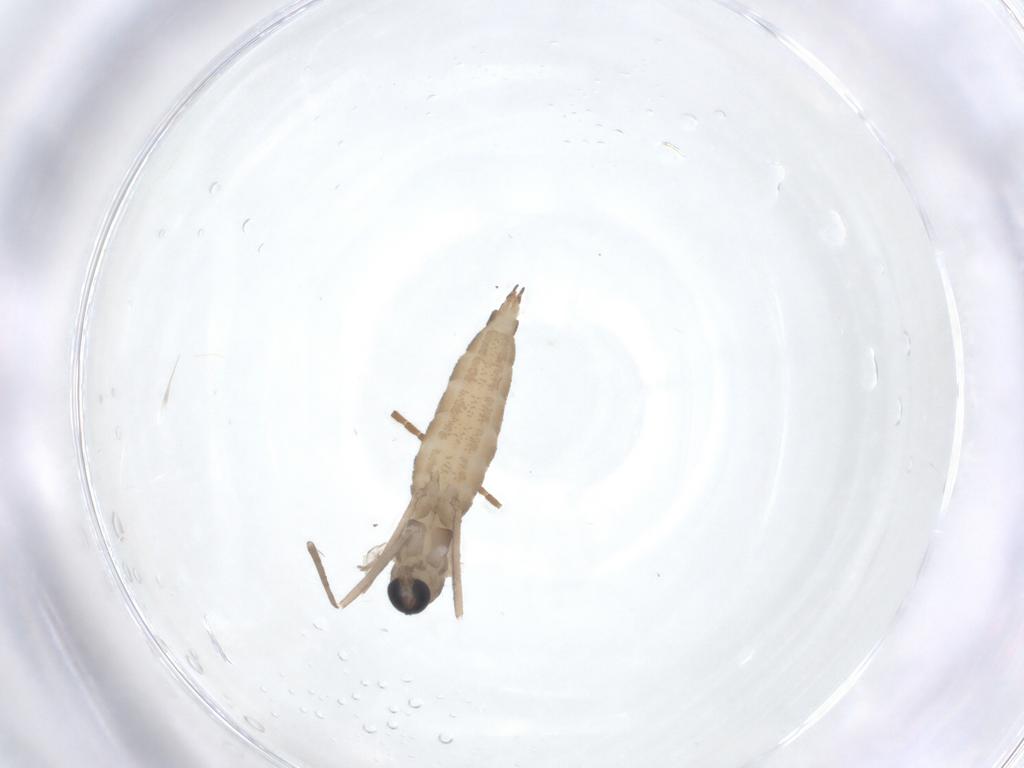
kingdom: Animalia
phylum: Arthropoda
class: Insecta
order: Diptera
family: Cecidomyiidae
